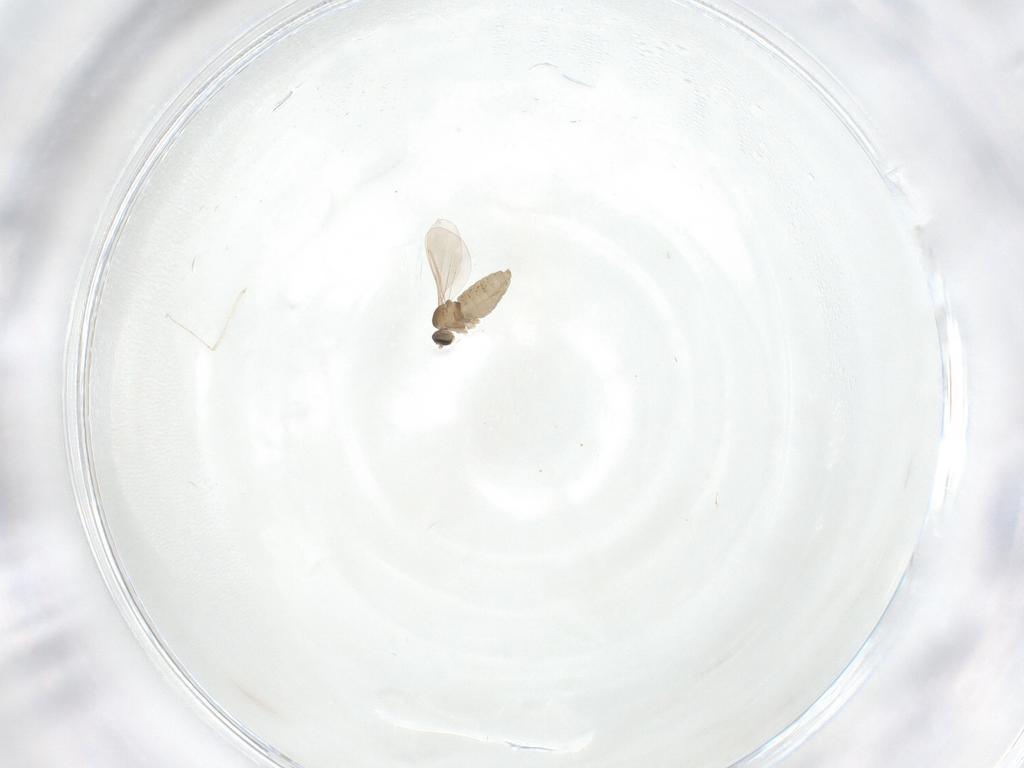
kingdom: Animalia
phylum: Arthropoda
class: Insecta
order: Diptera
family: Cecidomyiidae
